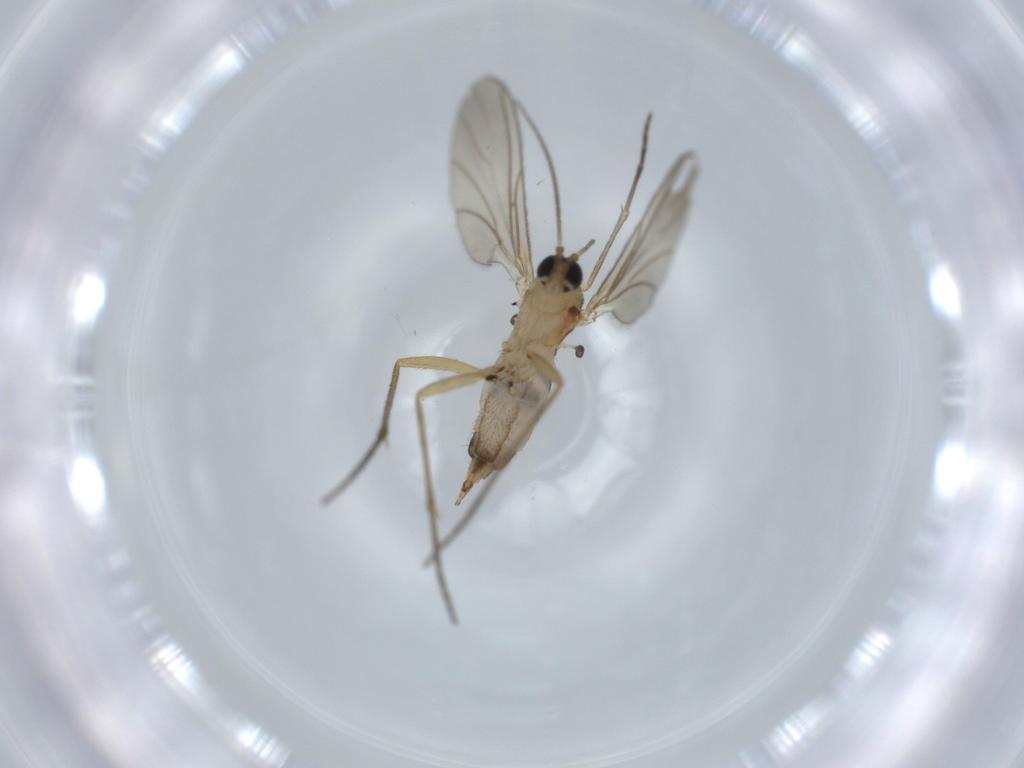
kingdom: Animalia
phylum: Arthropoda
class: Insecta
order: Diptera
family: Sciaridae
